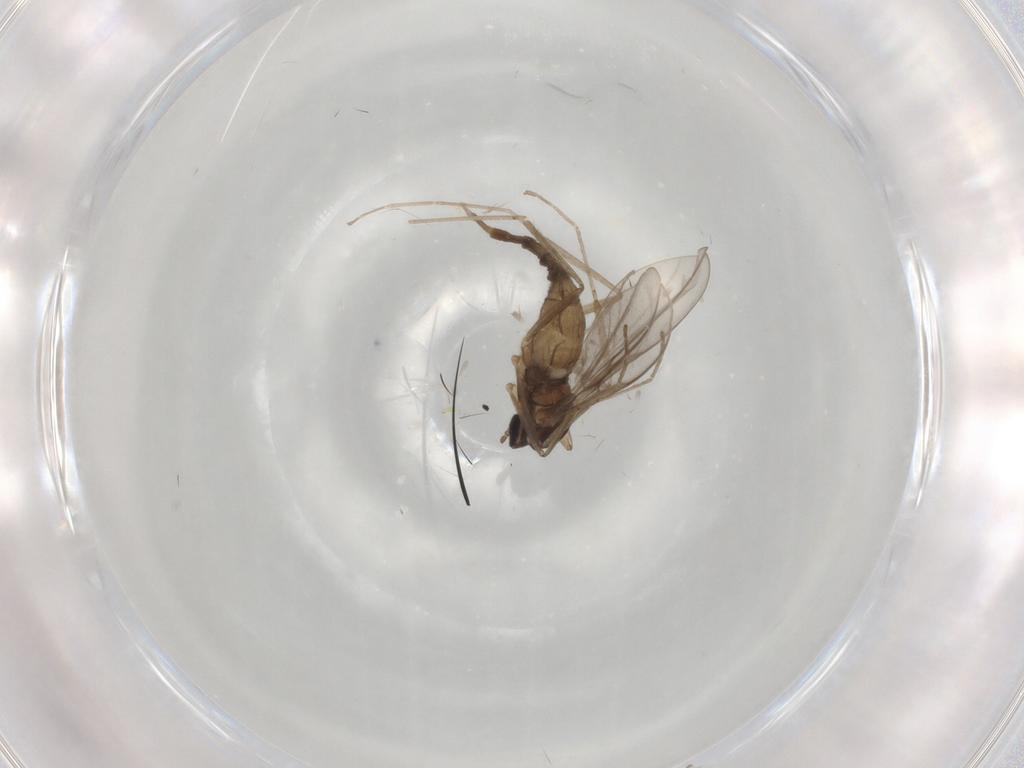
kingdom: Animalia
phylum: Arthropoda
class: Insecta
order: Diptera
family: Cecidomyiidae
